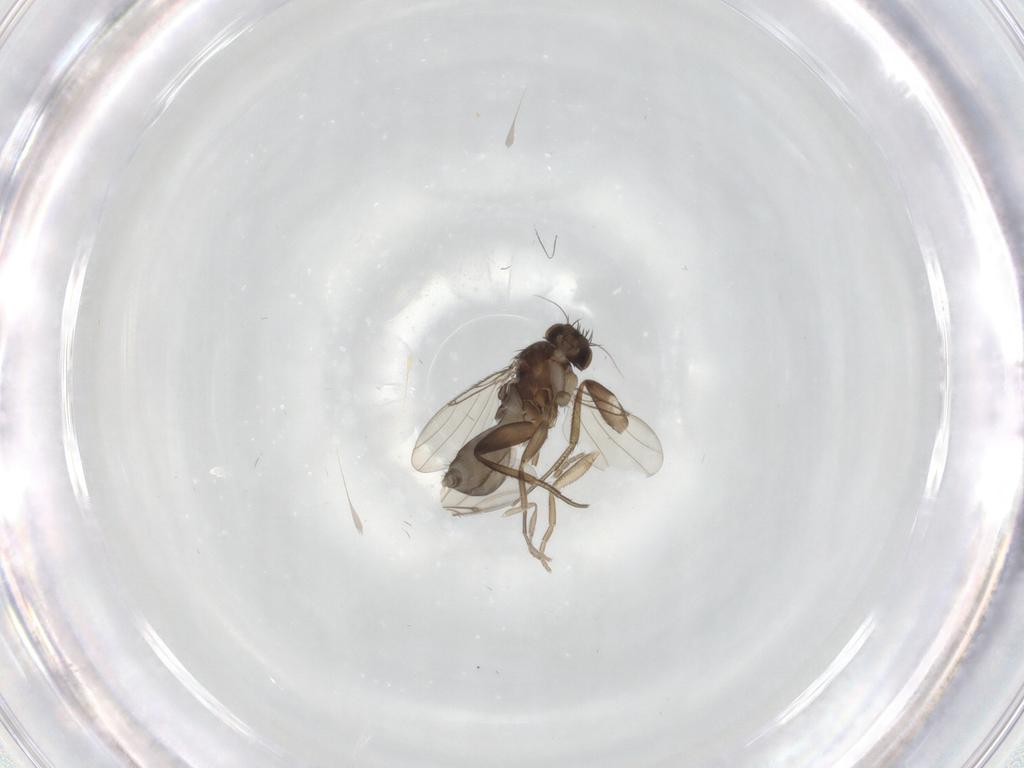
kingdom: Animalia
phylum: Arthropoda
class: Insecta
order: Diptera
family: Phoridae
